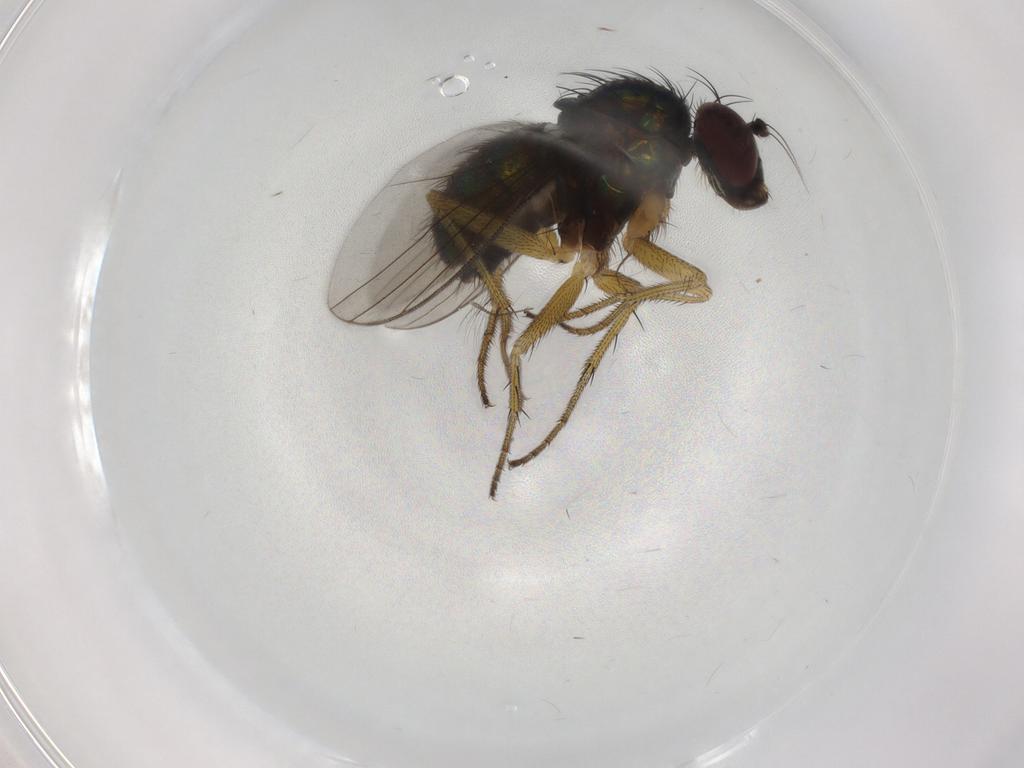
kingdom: Animalia
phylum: Arthropoda
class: Insecta
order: Diptera
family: Dolichopodidae
